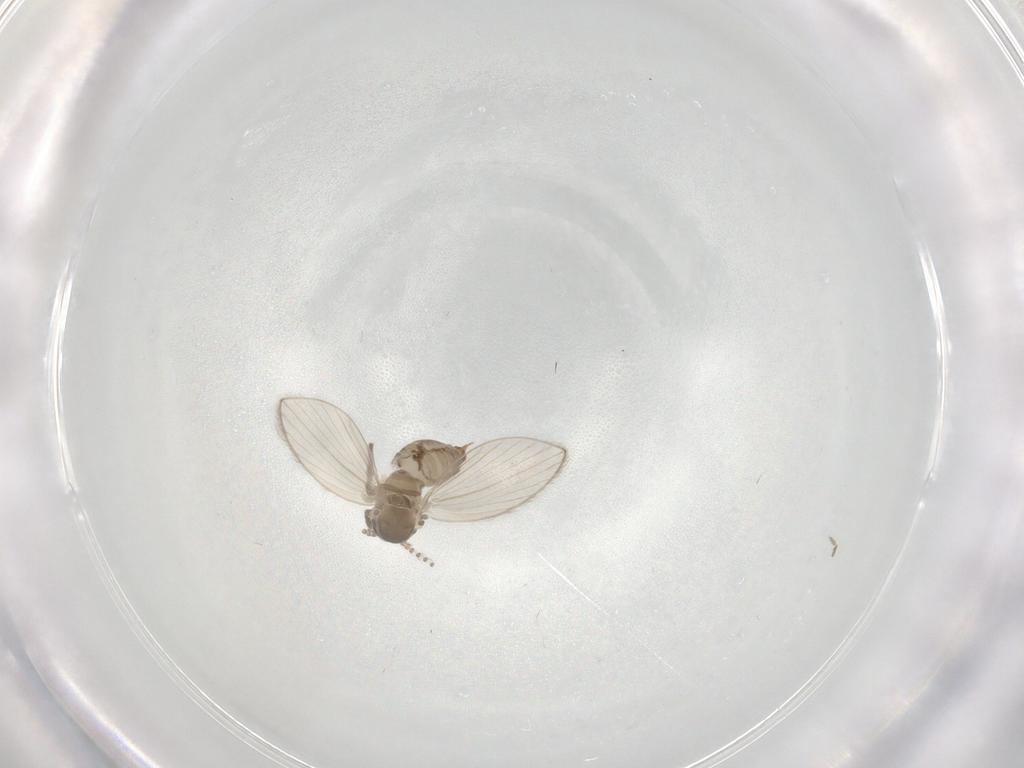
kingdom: Animalia
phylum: Arthropoda
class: Insecta
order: Diptera
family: Psychodidae
